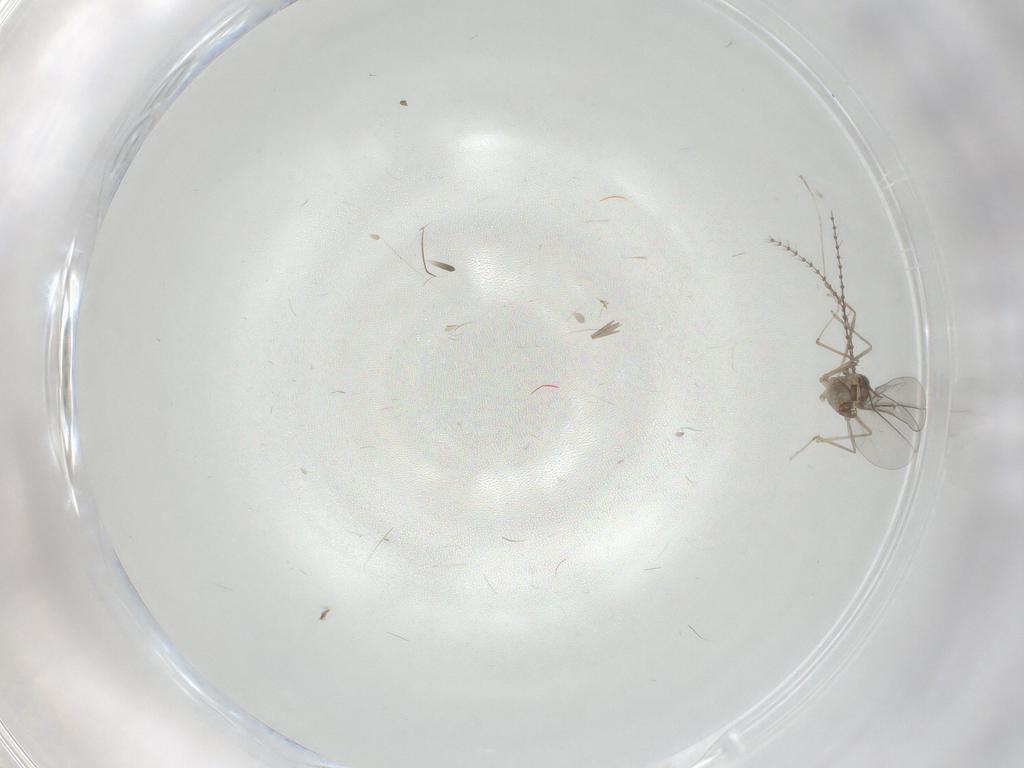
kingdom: Animalia
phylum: Arthropoda
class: Insecta
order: Diptera
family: Cecidomyiidae
